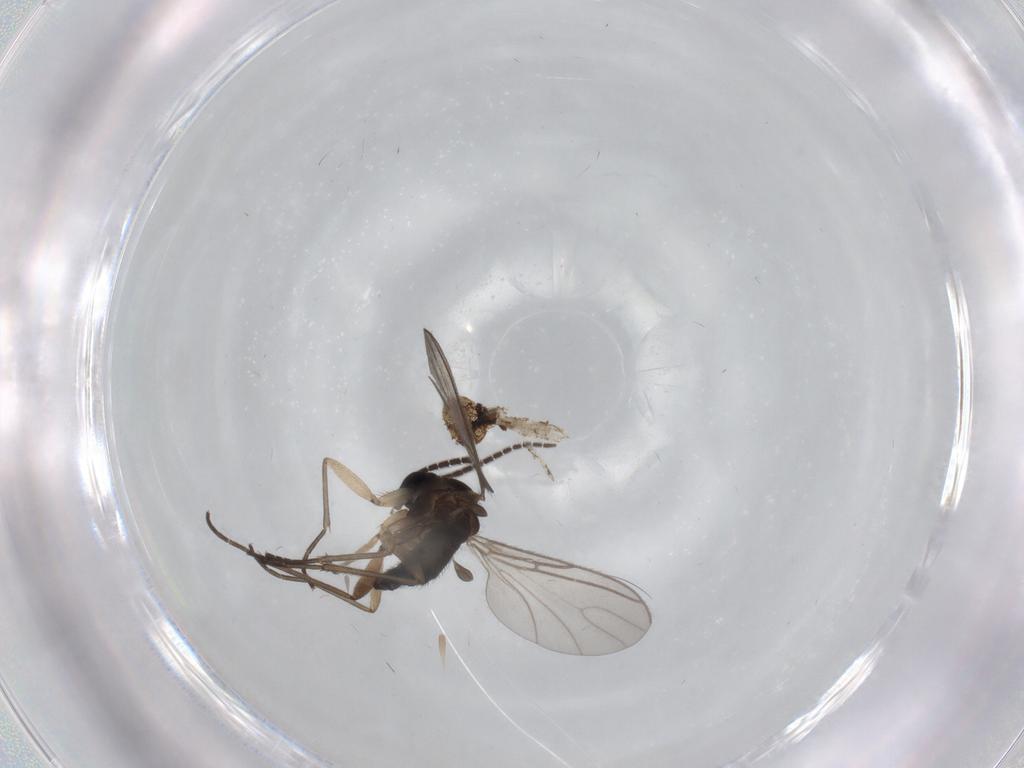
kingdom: Animalia
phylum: Arthropoda
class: Insecta
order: Diptera
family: Sciaridae
